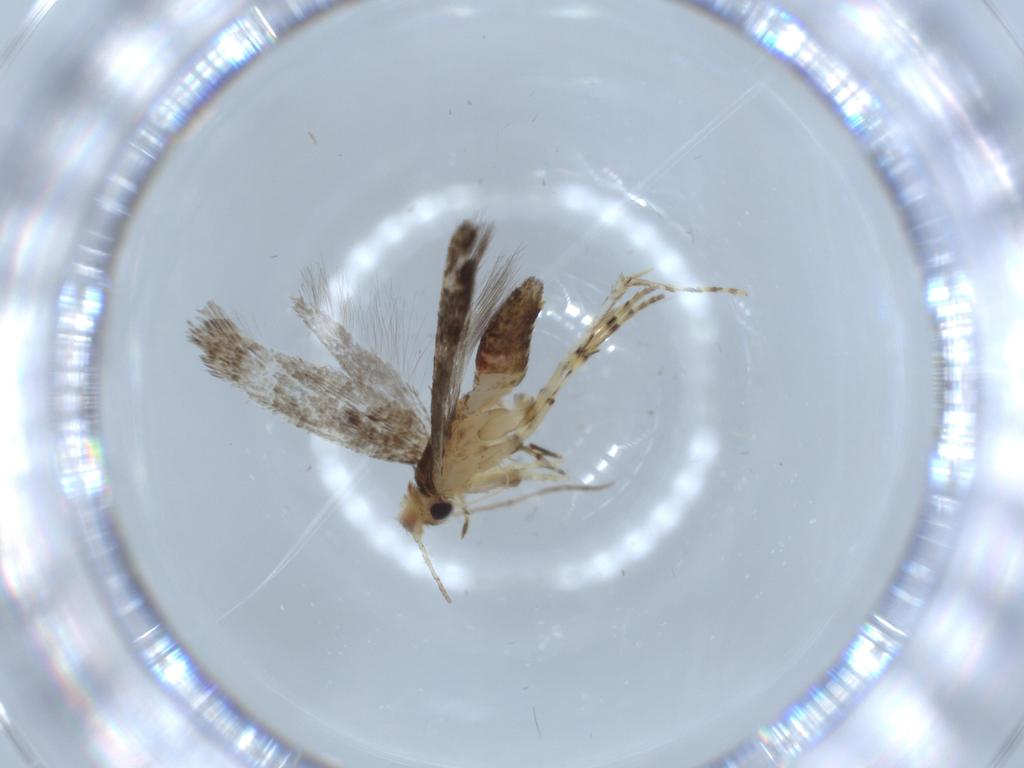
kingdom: Animalia
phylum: Arthropoda
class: Insecta
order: Lepidoptera
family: Argyresthiidae
